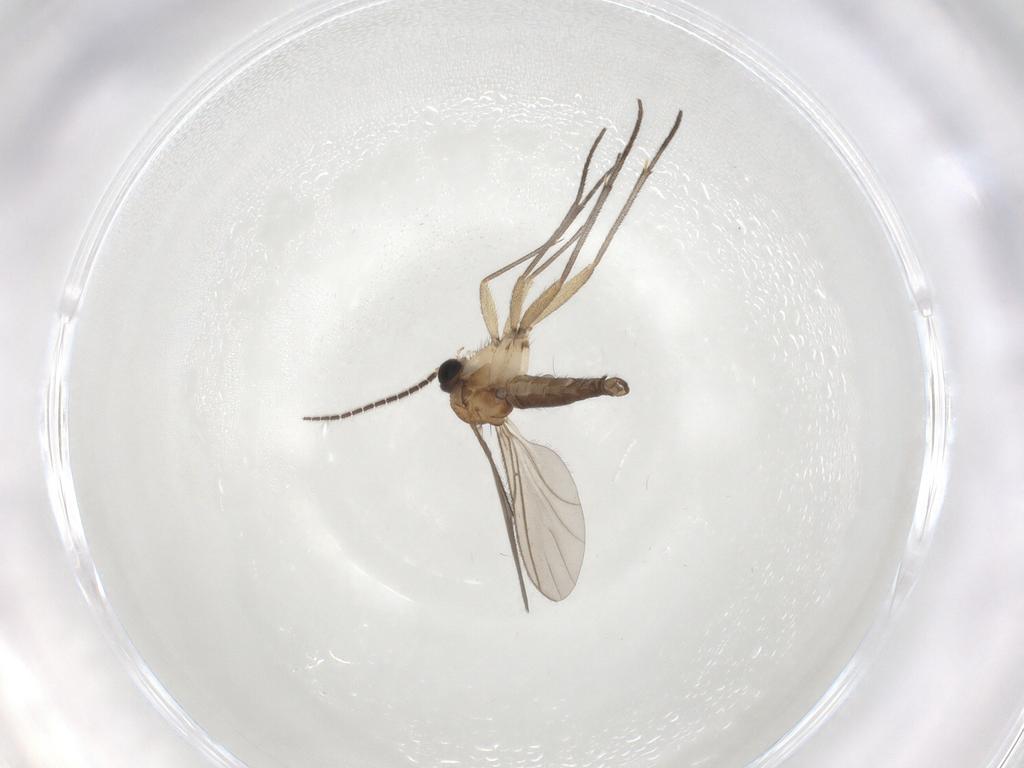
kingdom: Animalia
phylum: Arthropoda
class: Insecta
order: Diptera
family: Sciaridae
